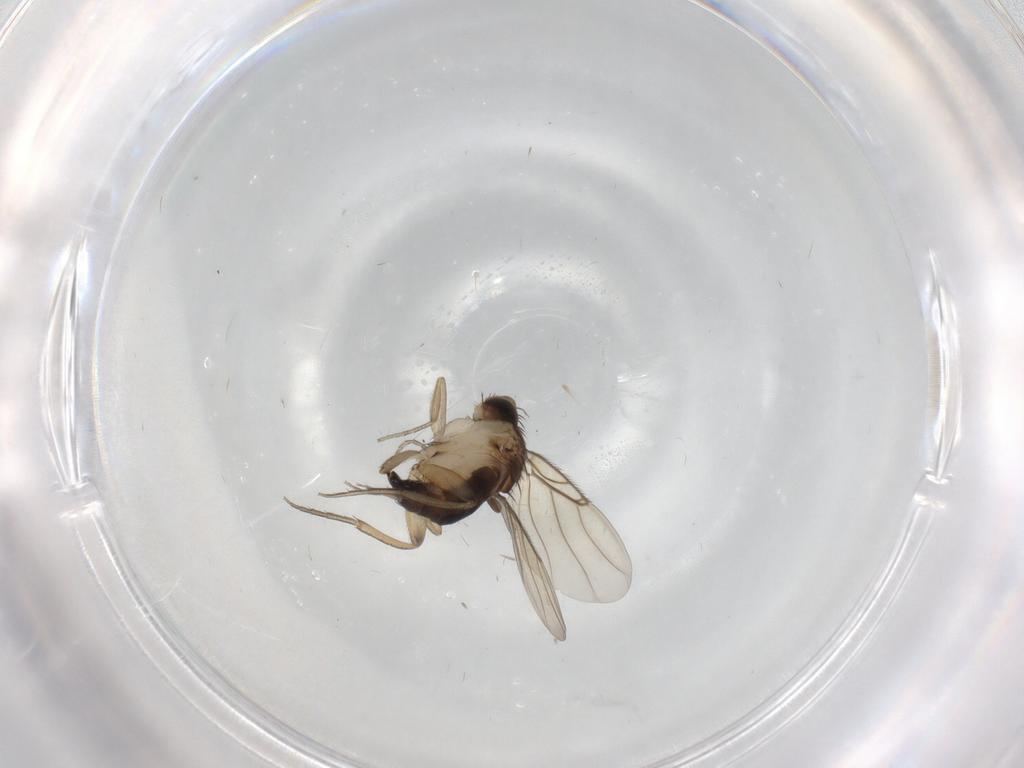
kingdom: Animalia
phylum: Arthropoda
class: Insecta
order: Diptera
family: Phoridae
